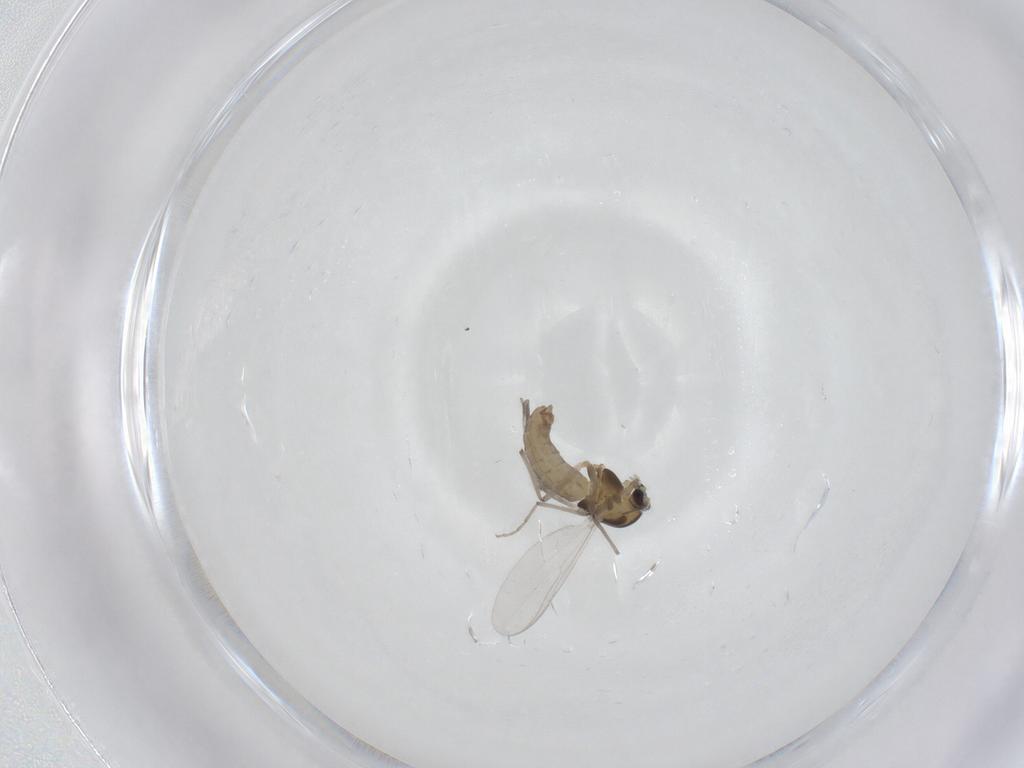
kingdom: Animalia
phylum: Arthropoda
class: Insecta
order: Diptera
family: Chironomidae
